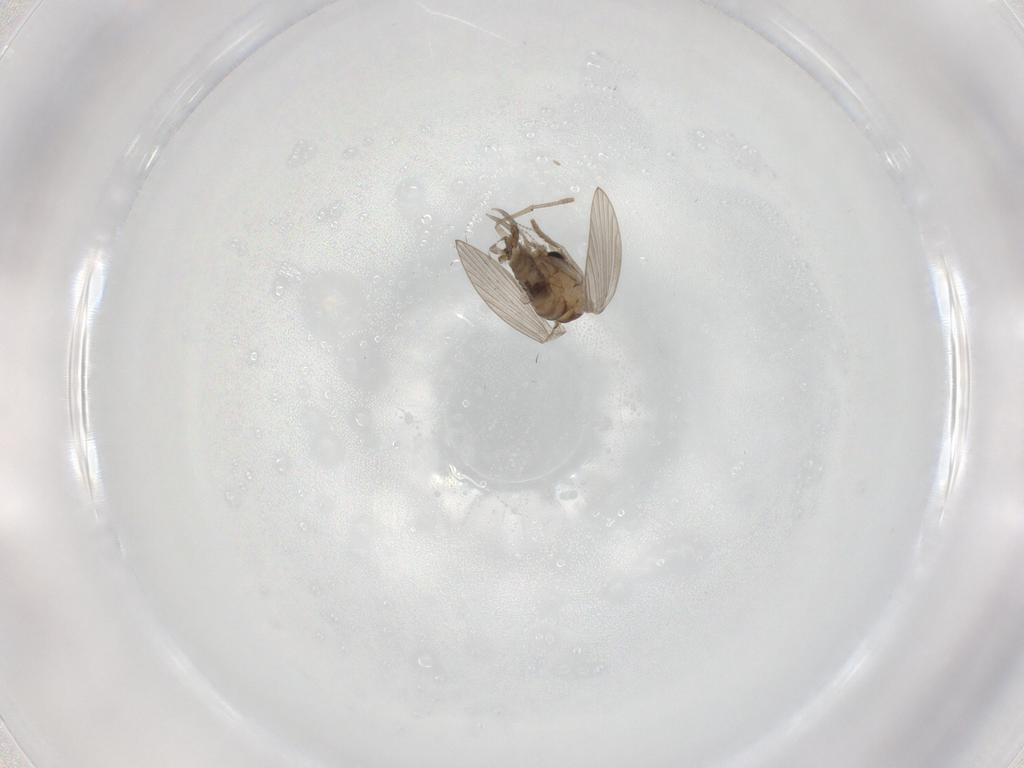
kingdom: Animalia
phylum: Arthropoda
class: Insecta
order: Diptera
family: Psychodidae
